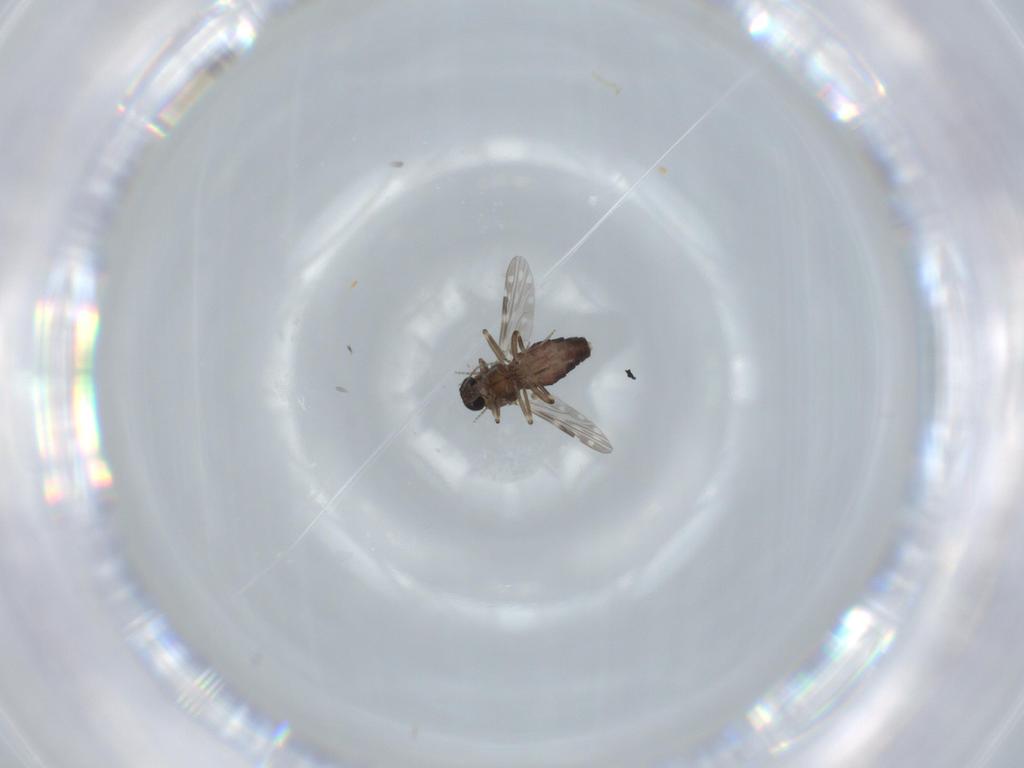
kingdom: Animalia
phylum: Arthropoda
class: Insecta
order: Diptera
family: Ceratopogonidae
